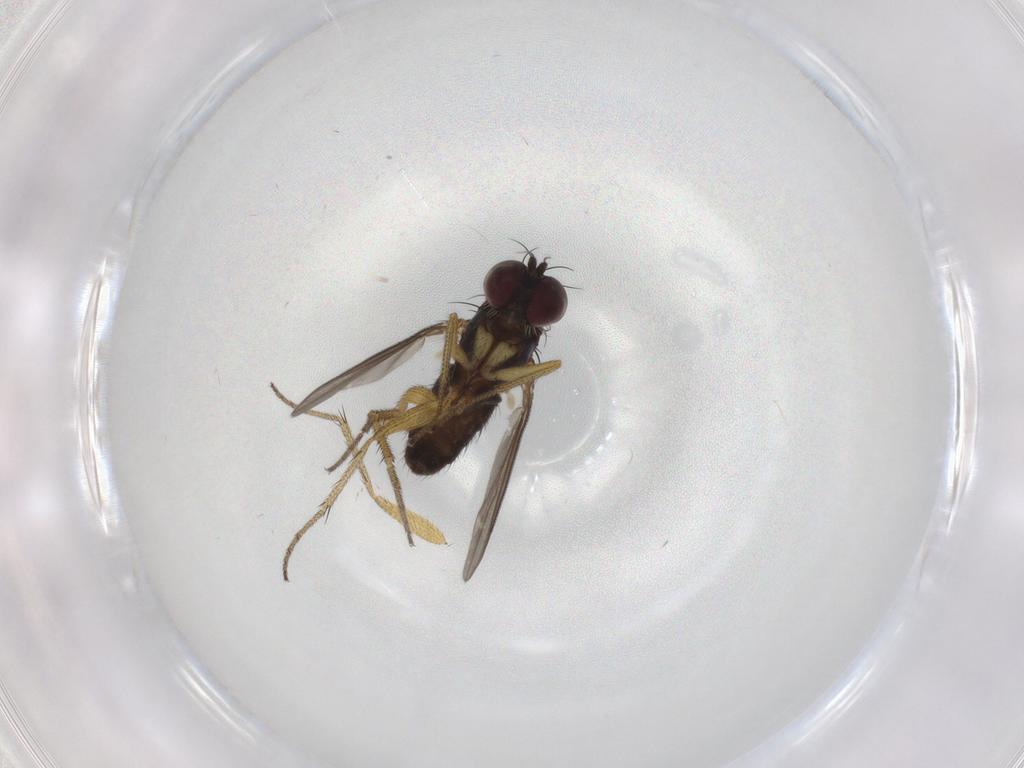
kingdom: Animalia
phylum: Arthropoda
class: Insecta
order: Diptera
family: Dolichopodidae
